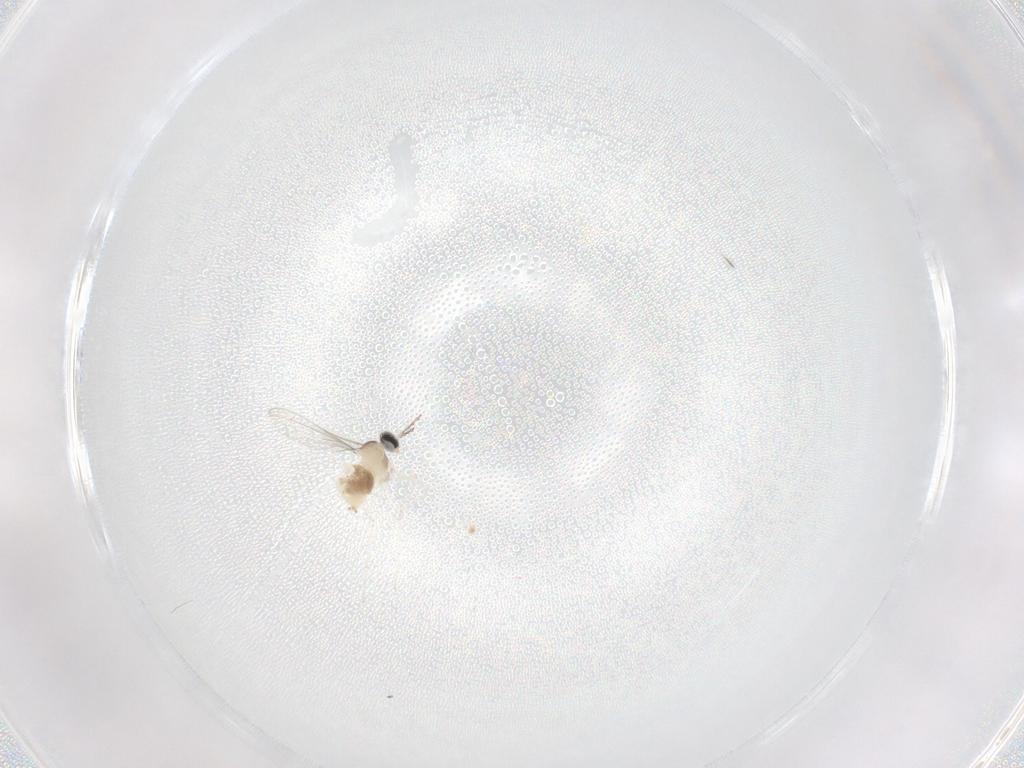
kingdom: Animalia
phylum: Arthropoda
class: Insecta
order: Diptera
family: Cecidomyiidae
